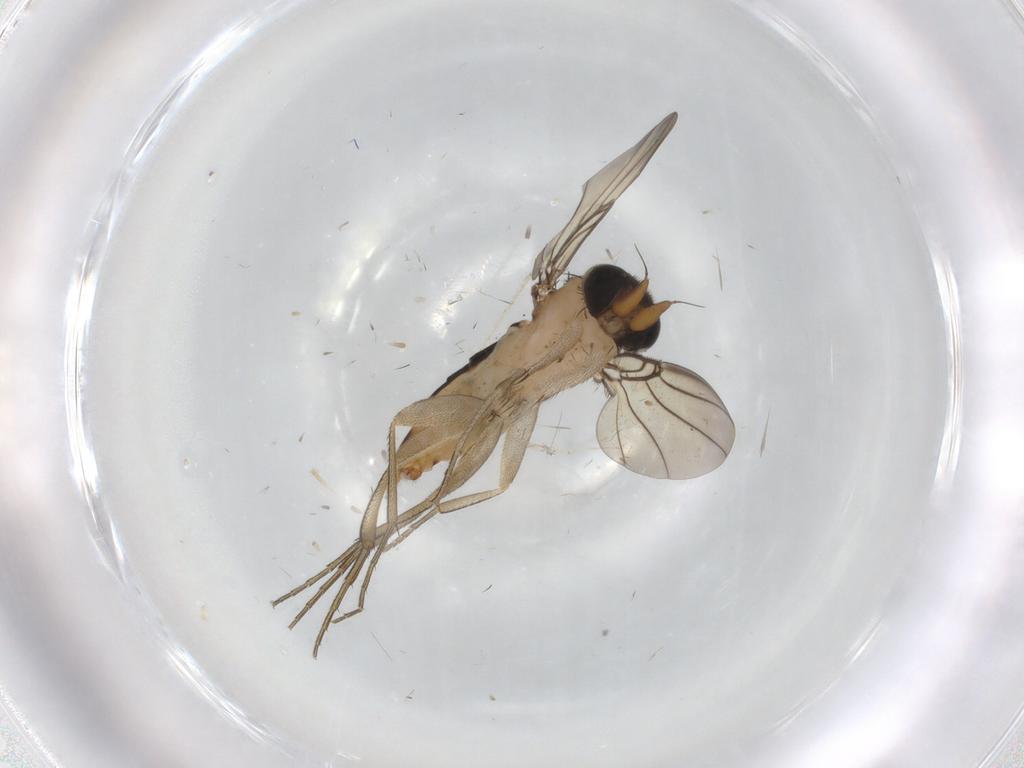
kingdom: Animalia
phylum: Arthropoda
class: Insecta
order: Diptera
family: Phoridae
